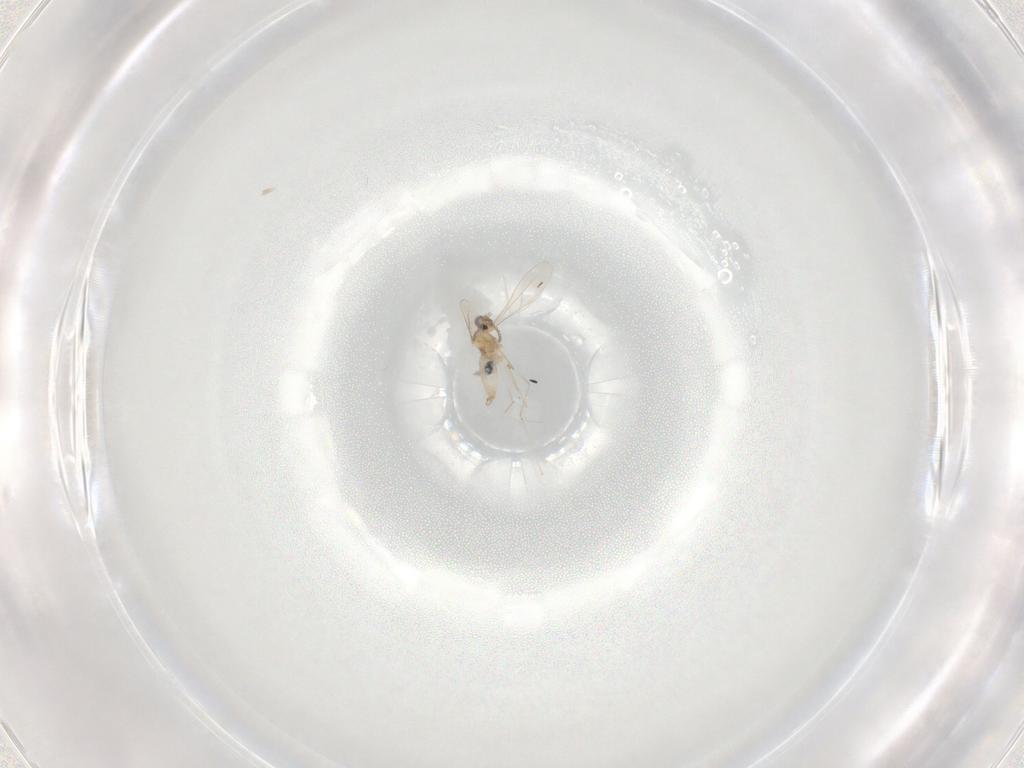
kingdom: Animalia
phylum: Arthropoda
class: Insecta
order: Diptera
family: Cecidomyiidae
